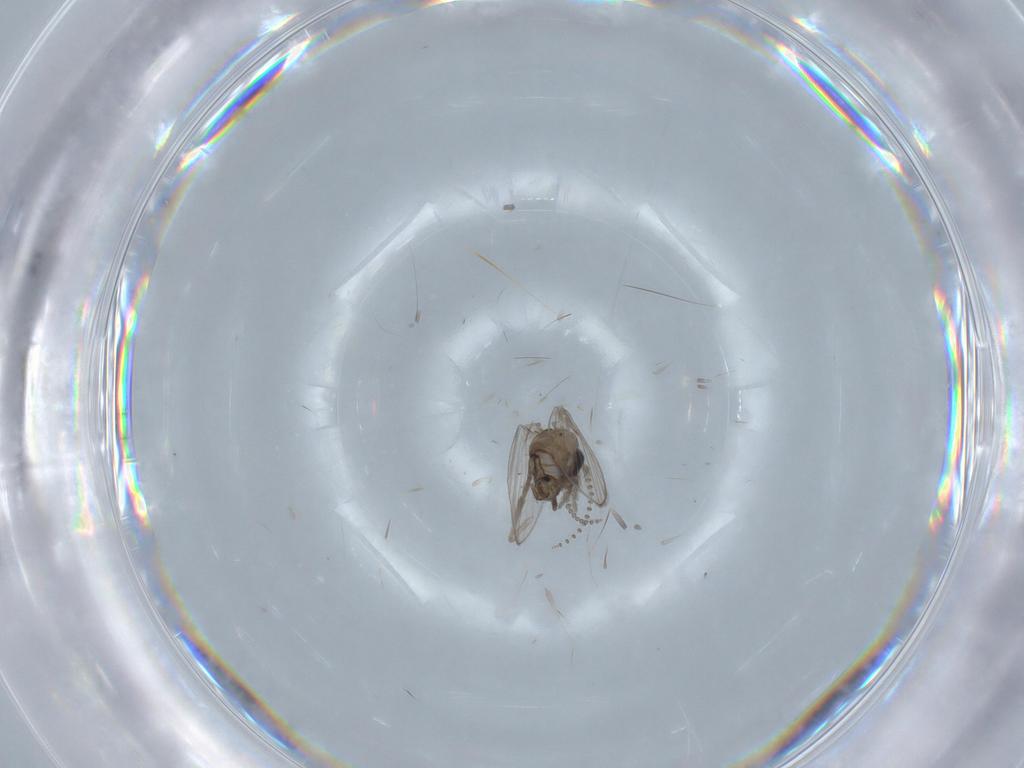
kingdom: Animalia
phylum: Arthropoda
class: Insecta
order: Diptera
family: Psychodidae
